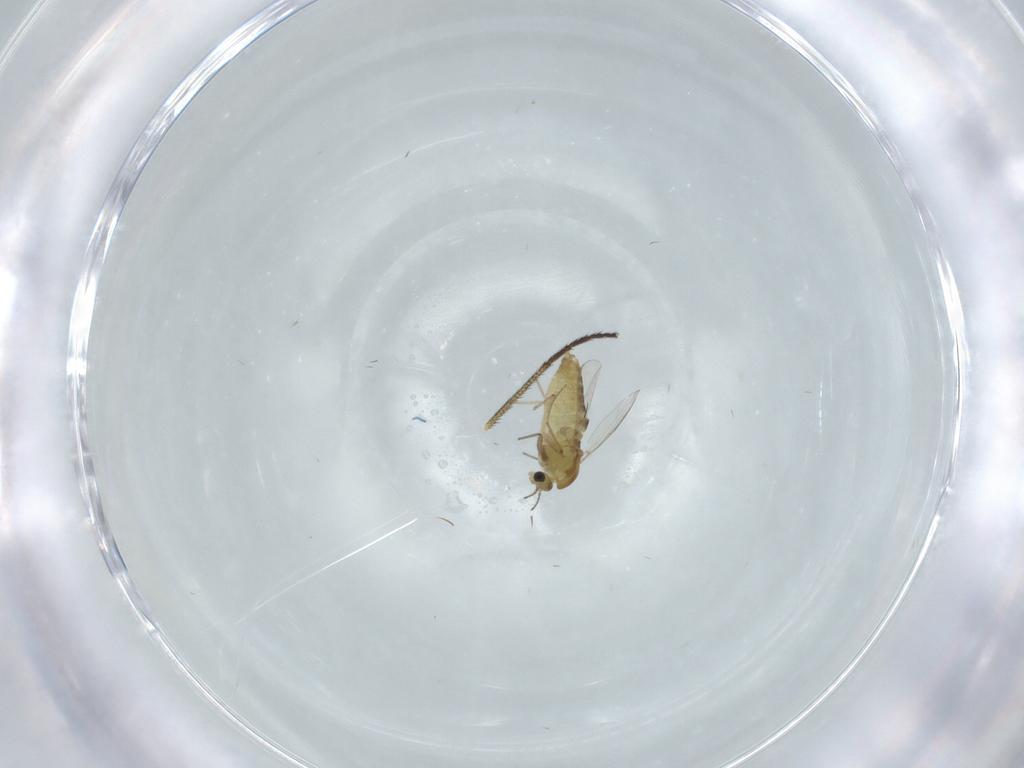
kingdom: Animalia
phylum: Arthropoda
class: Insecta
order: Diptera
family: Chironomidae
